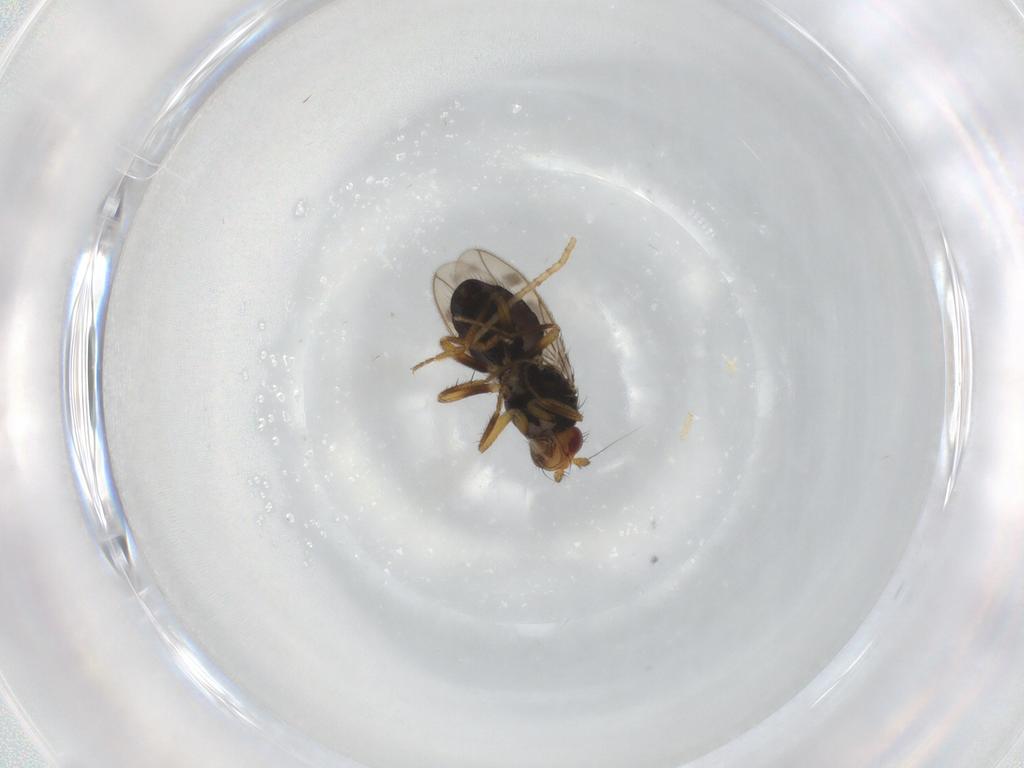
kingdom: Animalia
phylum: Arthropoda
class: Insecta
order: Diptera
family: Sphaeroceridae
